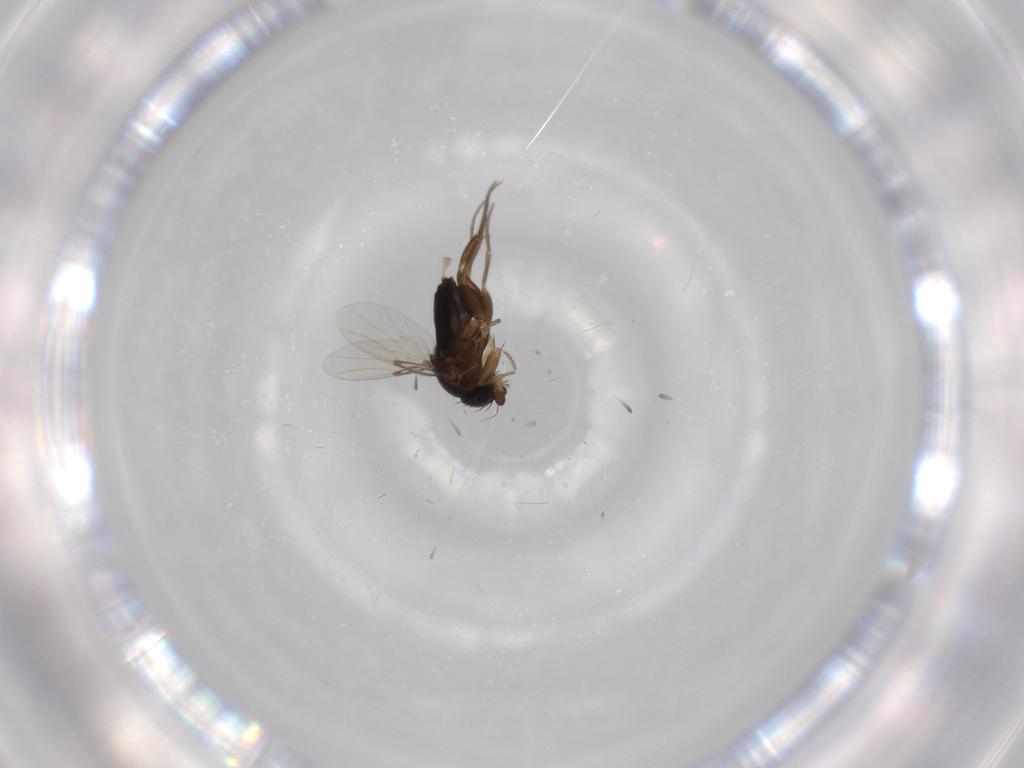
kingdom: Animalia
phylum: Arthropoda
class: Insecta
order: Diptera
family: Phoridae
